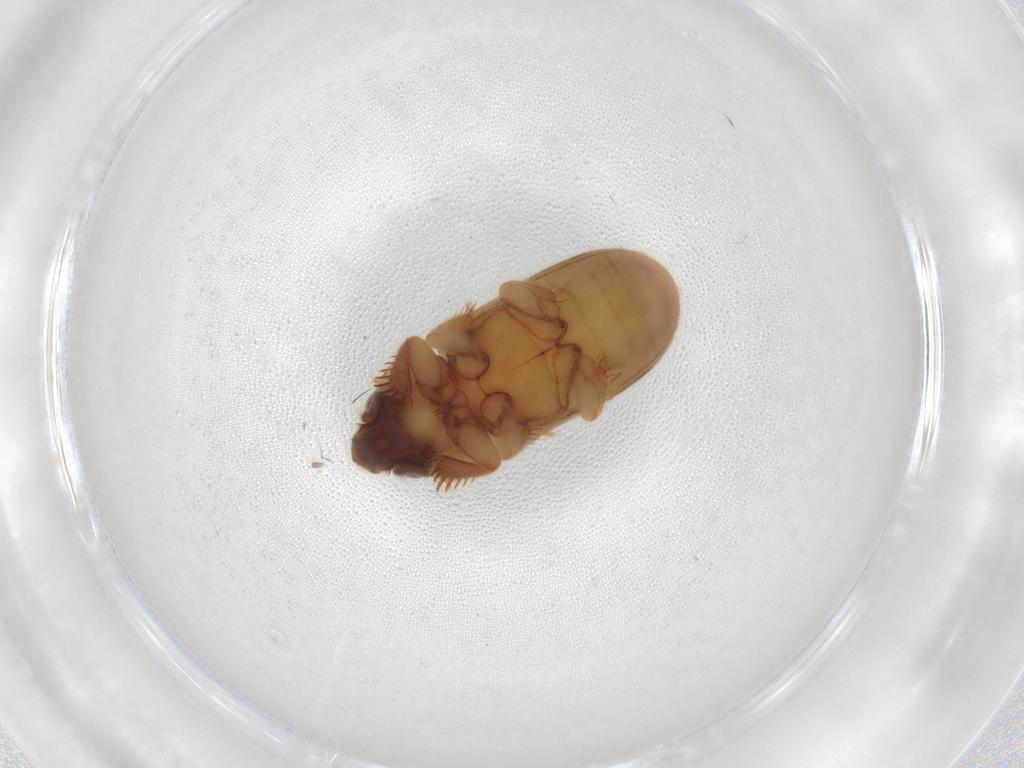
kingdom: Animalia
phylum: Arthropoda
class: Insecta
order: Coleoptera
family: Heteroceridae
